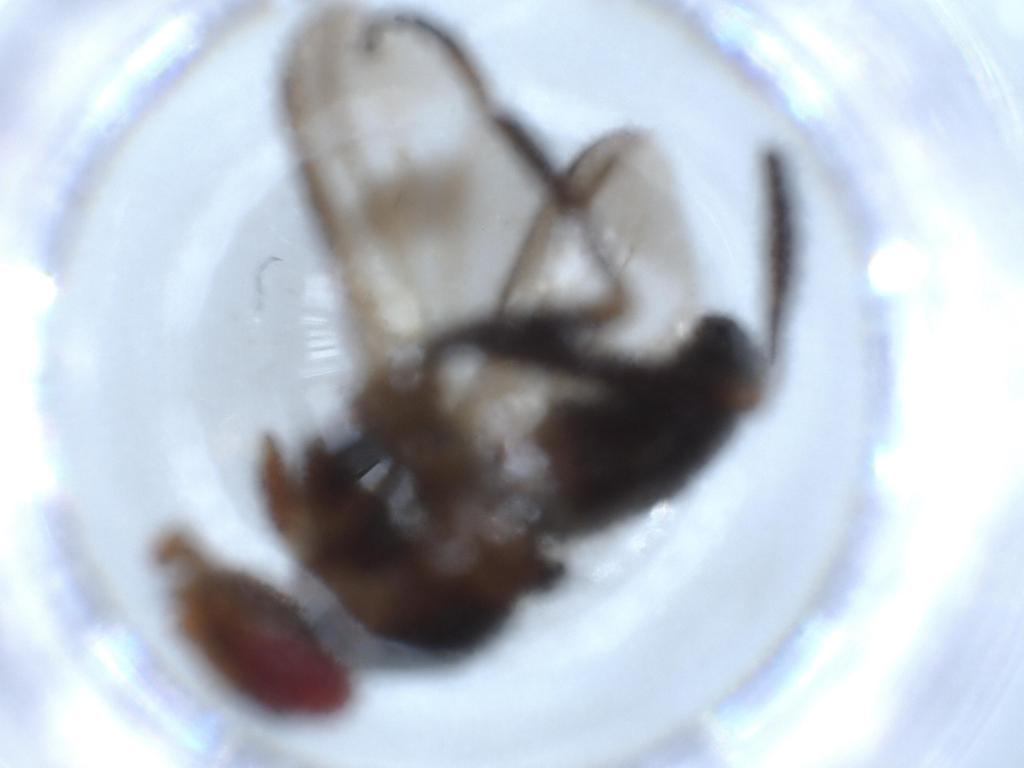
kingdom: Animalia
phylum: Arthropoda
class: Insecta
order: Diptera
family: Calliphoridae
